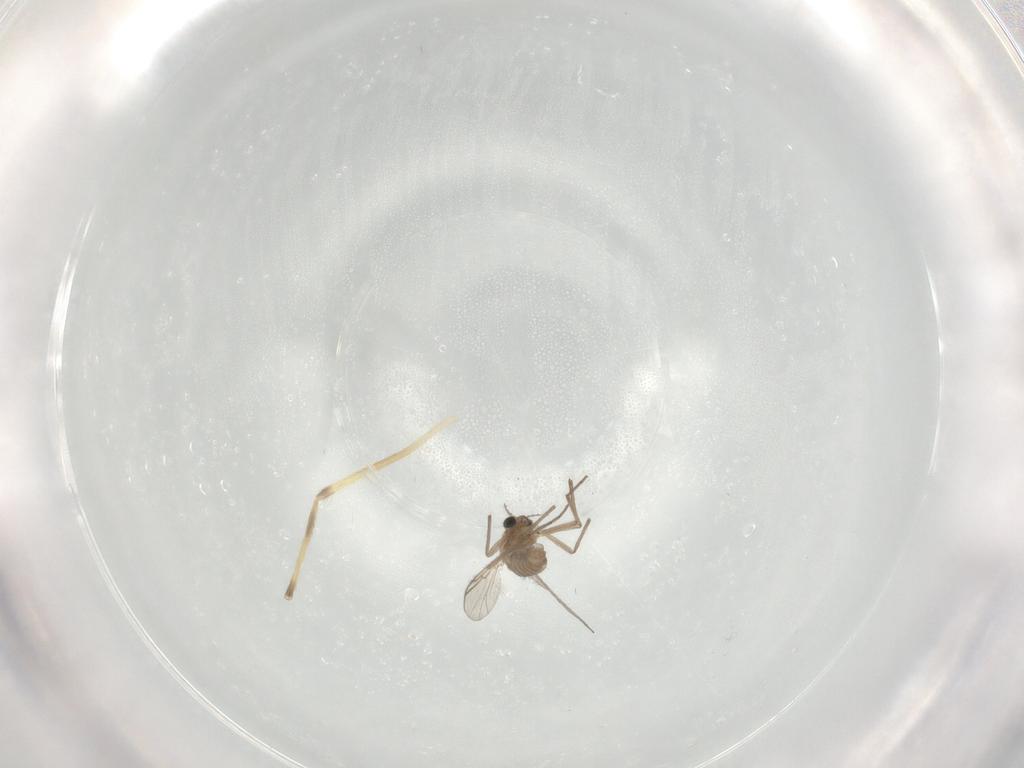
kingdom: Animalia
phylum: Arthropoda
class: Insecta
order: Diptera
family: Chironomidae
